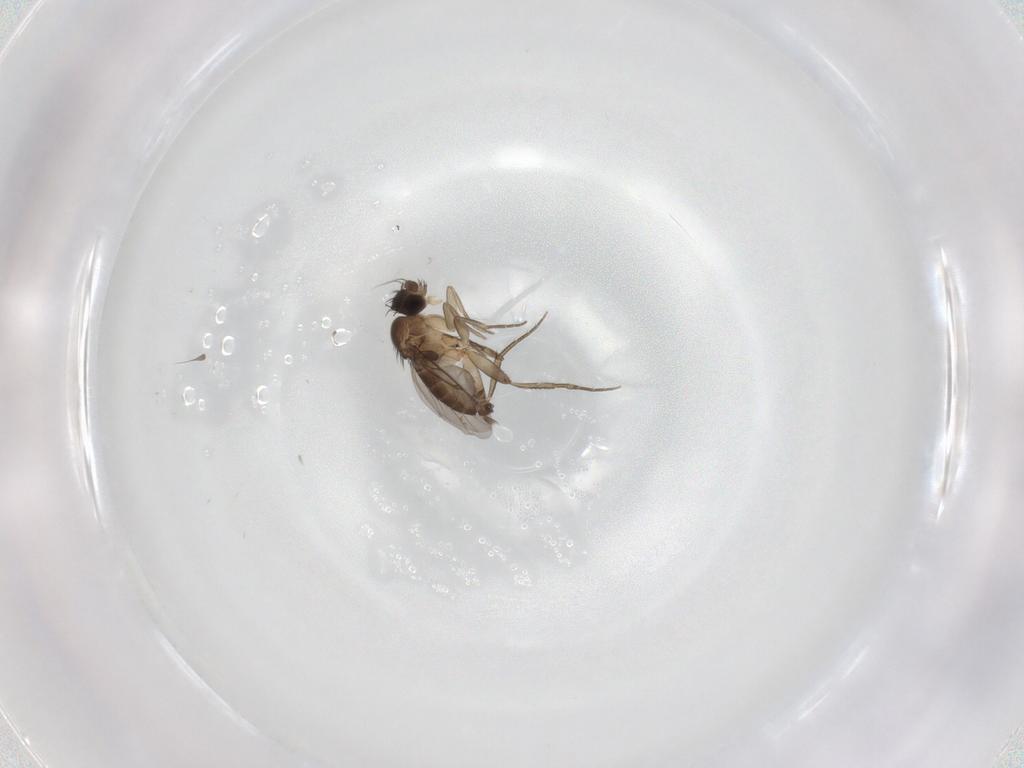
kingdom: Animalia
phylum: Arthropoda
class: Insecta
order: Diptera
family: Phoridae
